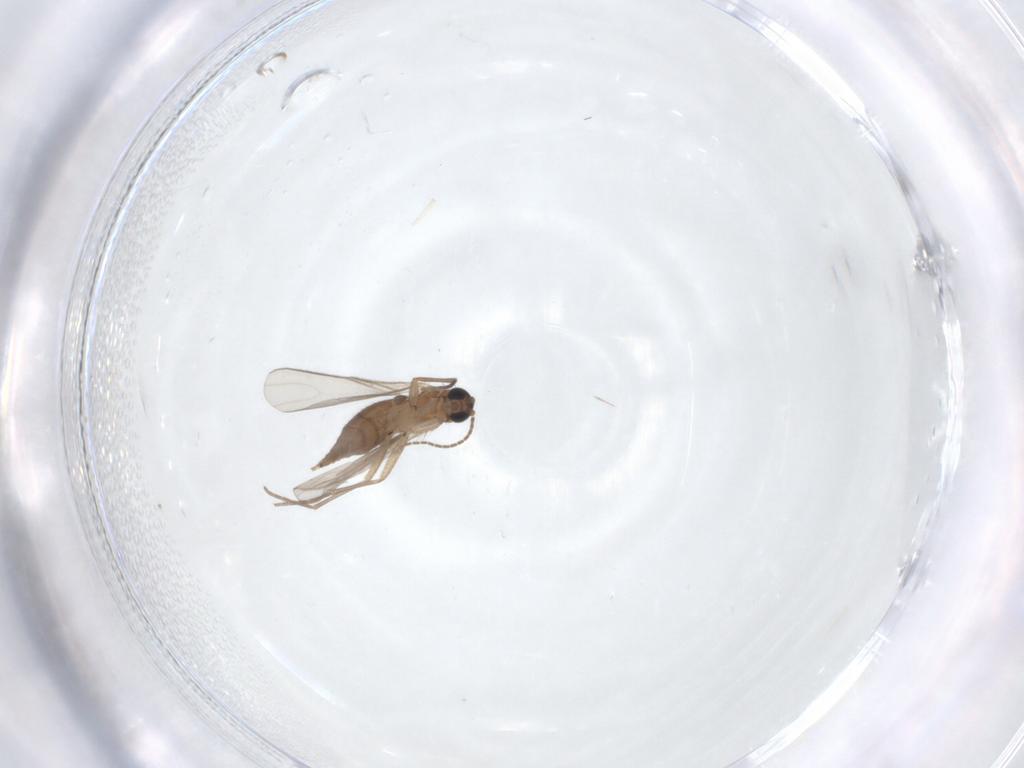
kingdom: Animalia
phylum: Arthropoda
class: Insecta
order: Diptera
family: Sciaridae
